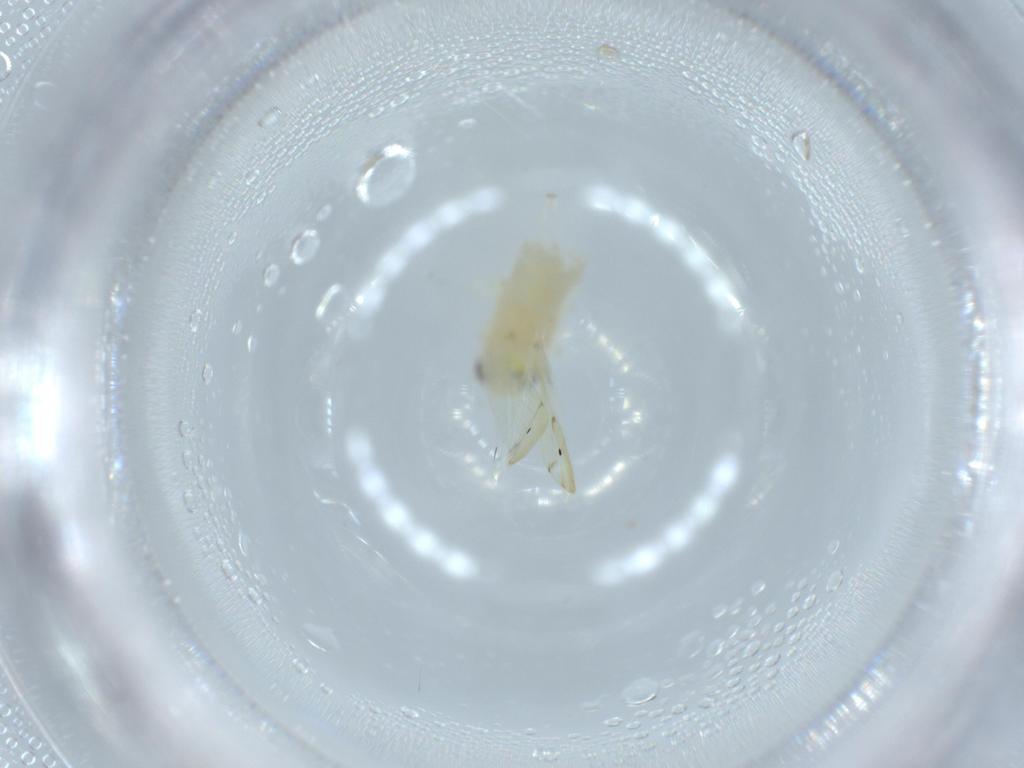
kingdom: Animalia
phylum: Arthropoda
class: Insecta
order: Hemiptera
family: Cicadellidae
